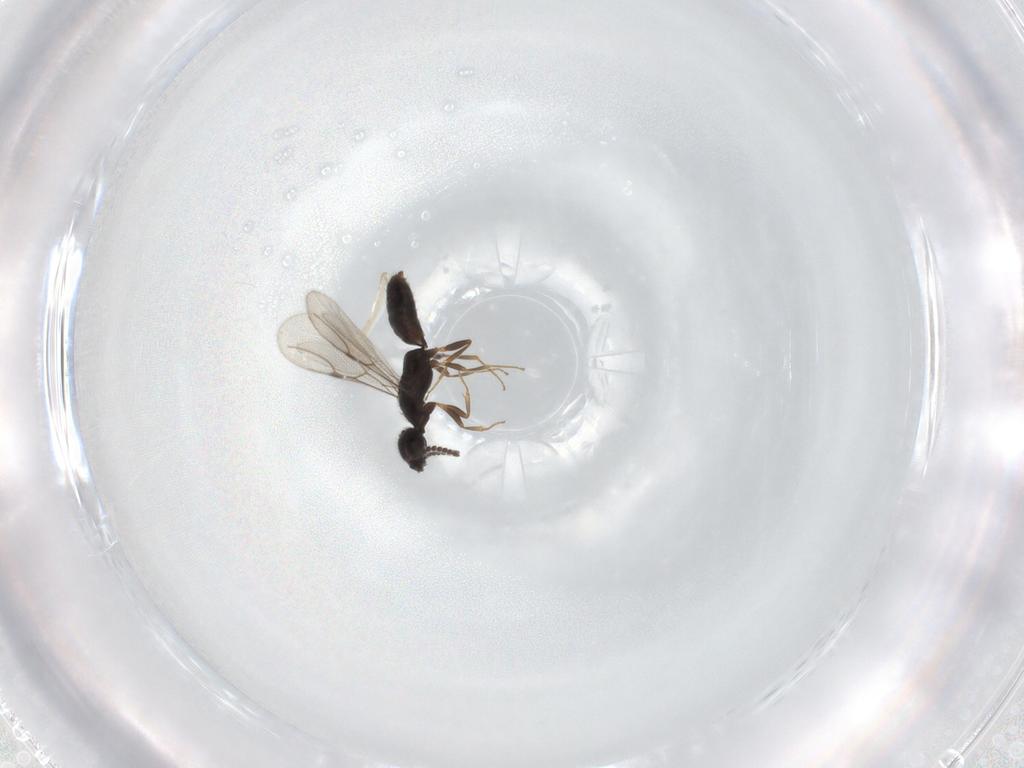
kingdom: Animalia
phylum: Arthropoda
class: Insecta
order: Hymenoptera
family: Bethylidae
